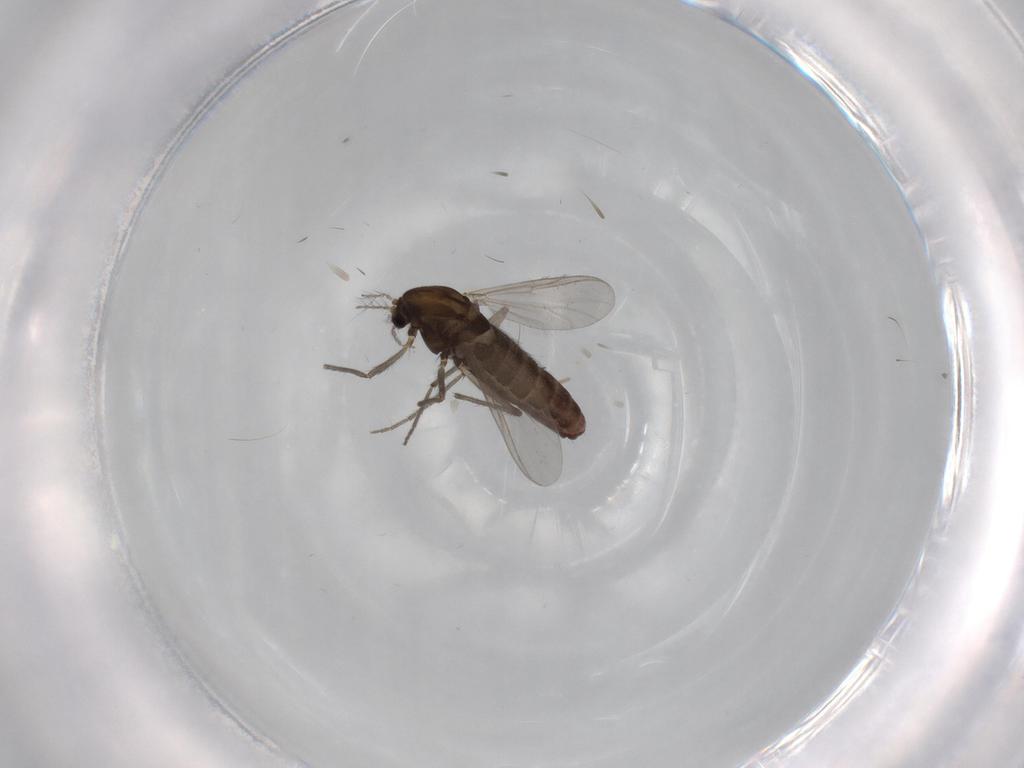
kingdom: Animalia
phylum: Arthropoda
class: Insecta
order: Diptera
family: Chironomidae
